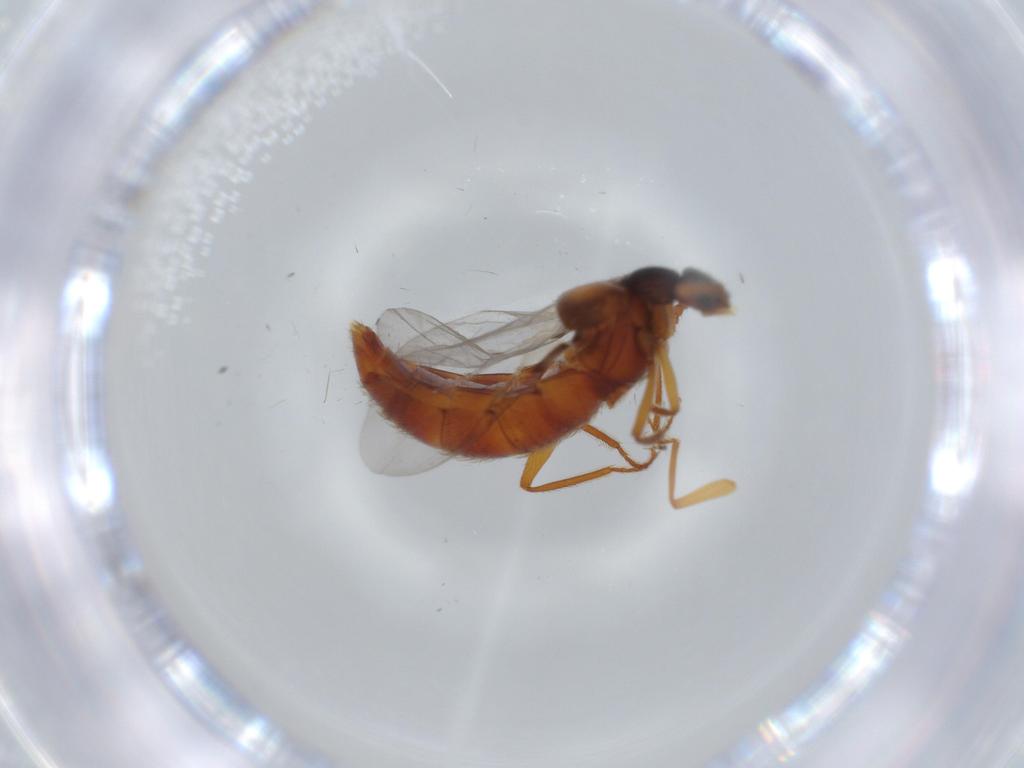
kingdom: Animalia
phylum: Arthropoda
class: Insecta
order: Coleoptera
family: Staphylinidae
